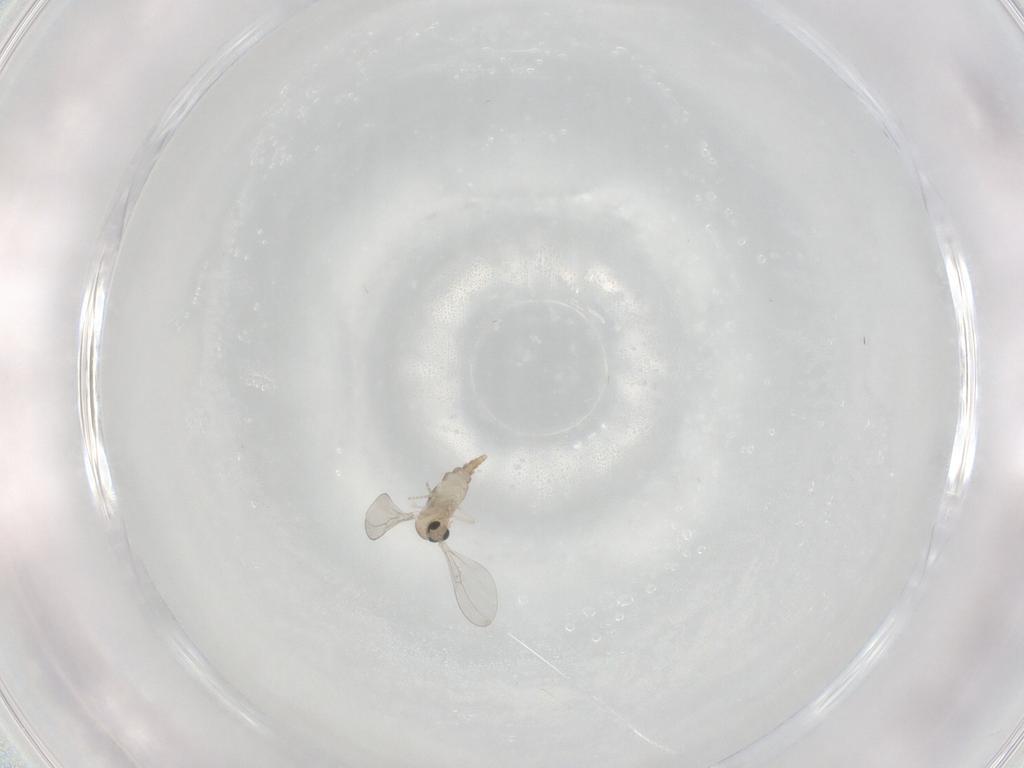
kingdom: Animalia
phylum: Arthropoda
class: Insecta
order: Diptera
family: Cecidomyiidae
